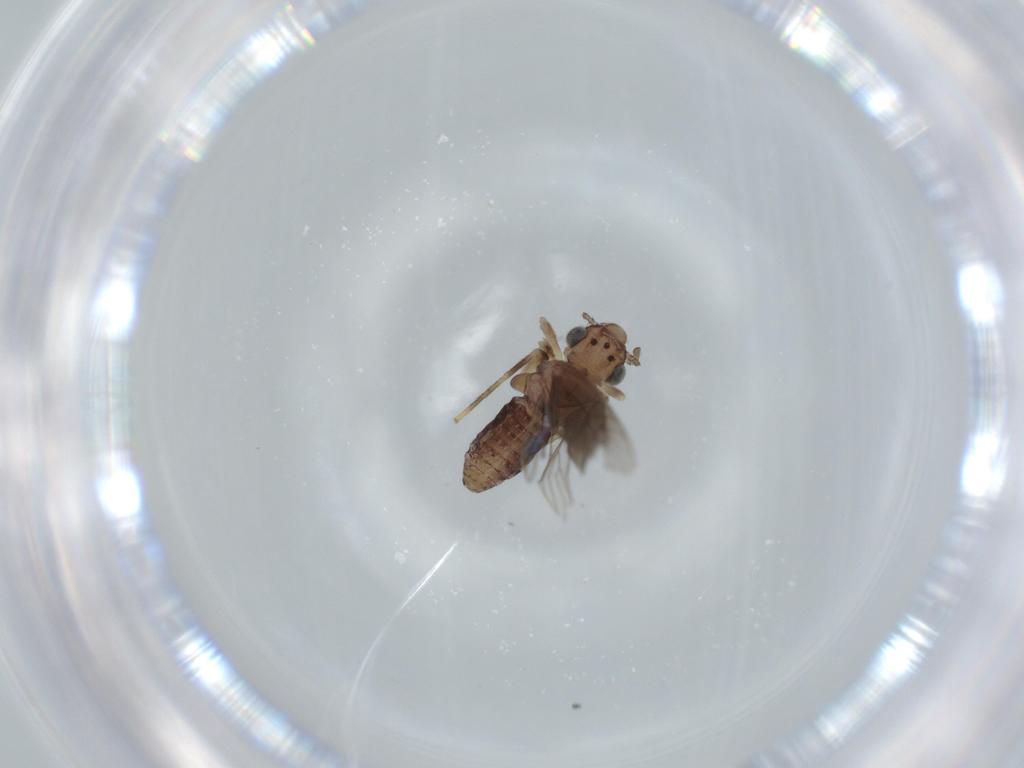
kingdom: Animalia
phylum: Arthropoda
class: Insecta
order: Psocodea
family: Lepidopsocidae
